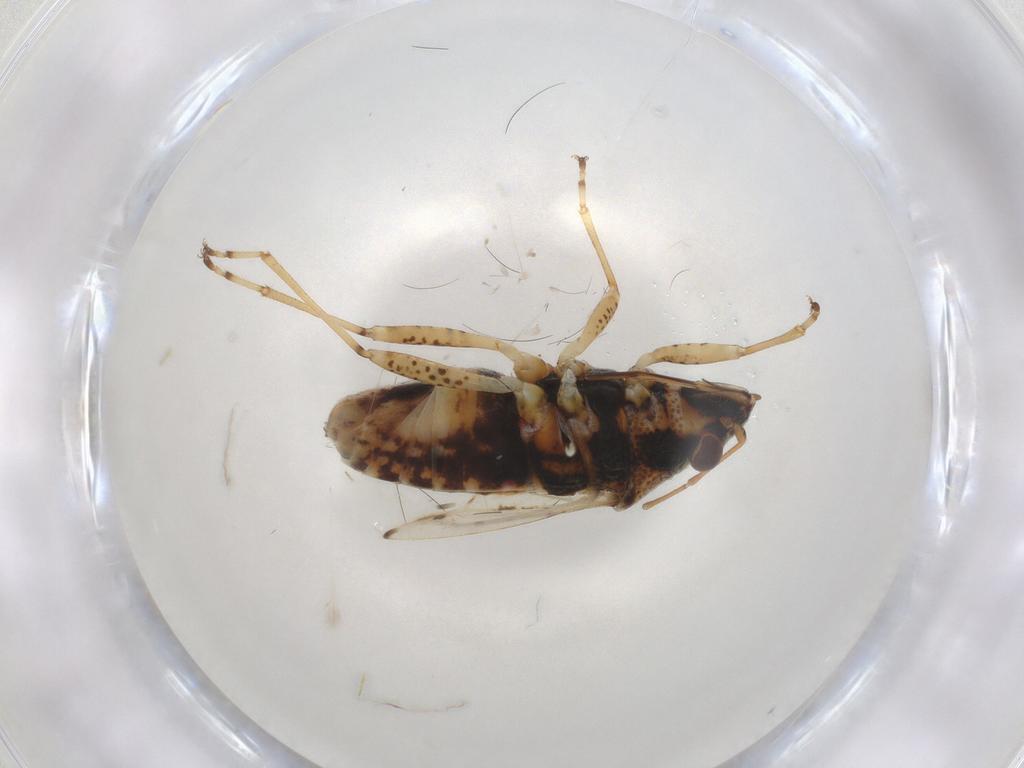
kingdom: Animalia
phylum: Arthropoda
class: Insecta
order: Hemiptera
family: Lygaeidae
